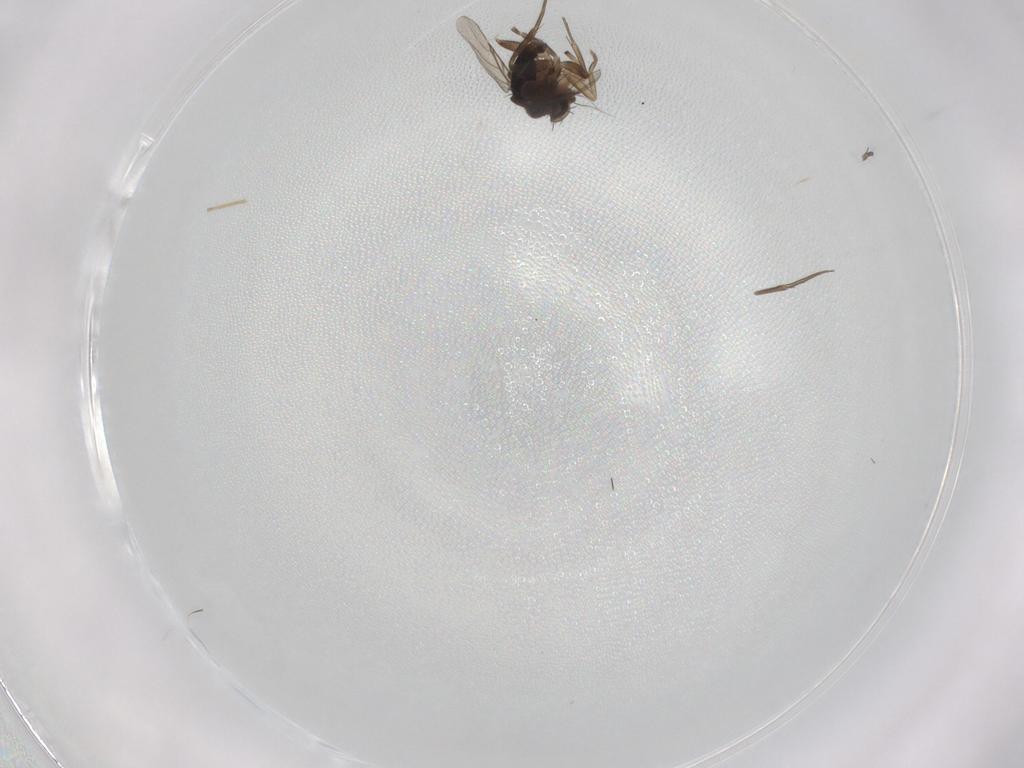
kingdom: Animalia
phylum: Arthropoda
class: Insecta
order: Diptera
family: Phoridae
